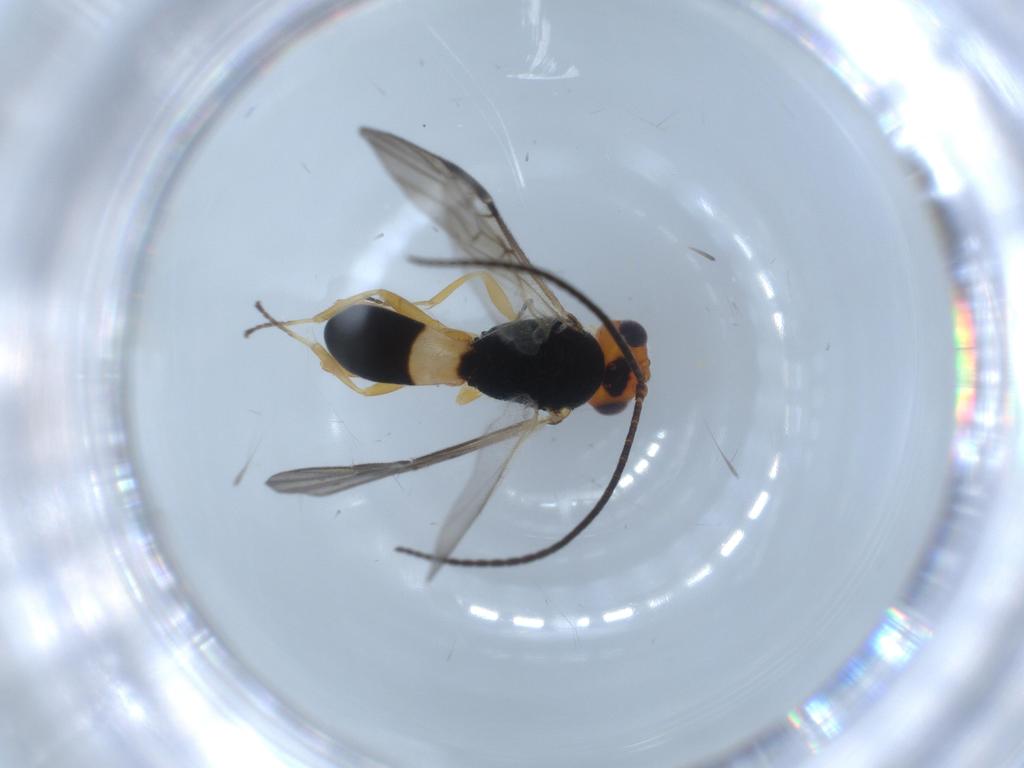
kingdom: Animalia
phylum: Arthropoda
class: Insecta
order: Hymenoptera
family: Braconidae
